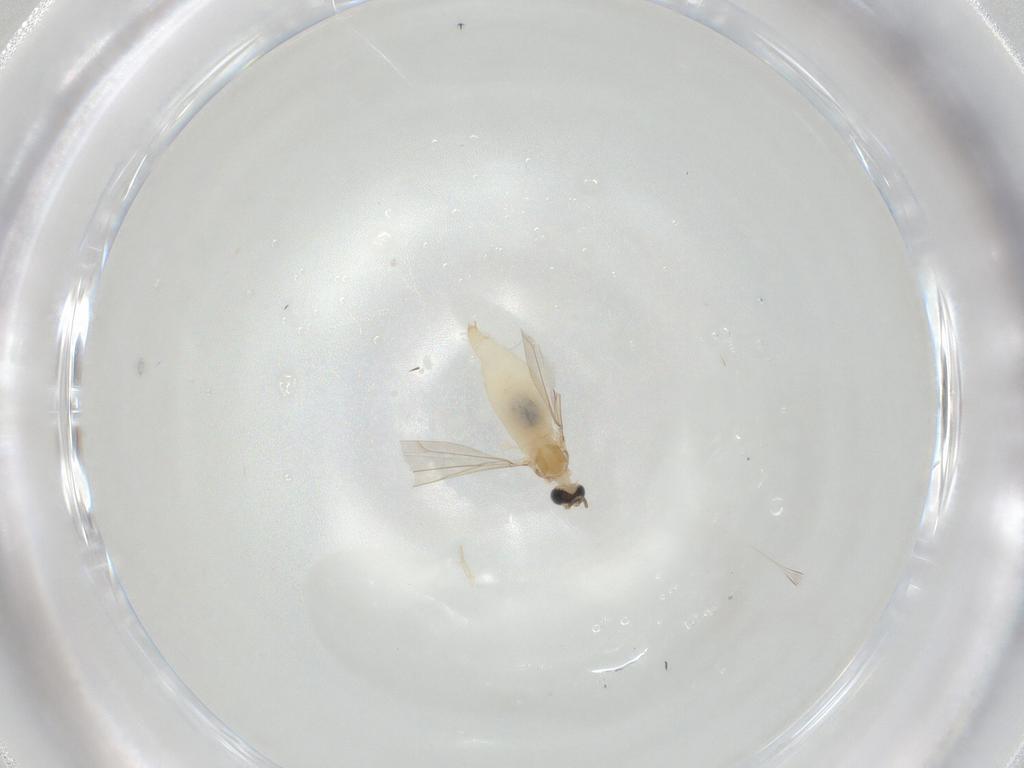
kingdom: Animalia
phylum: Arthropoda
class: Insecta
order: Diptera
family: Cecidomyiidae
